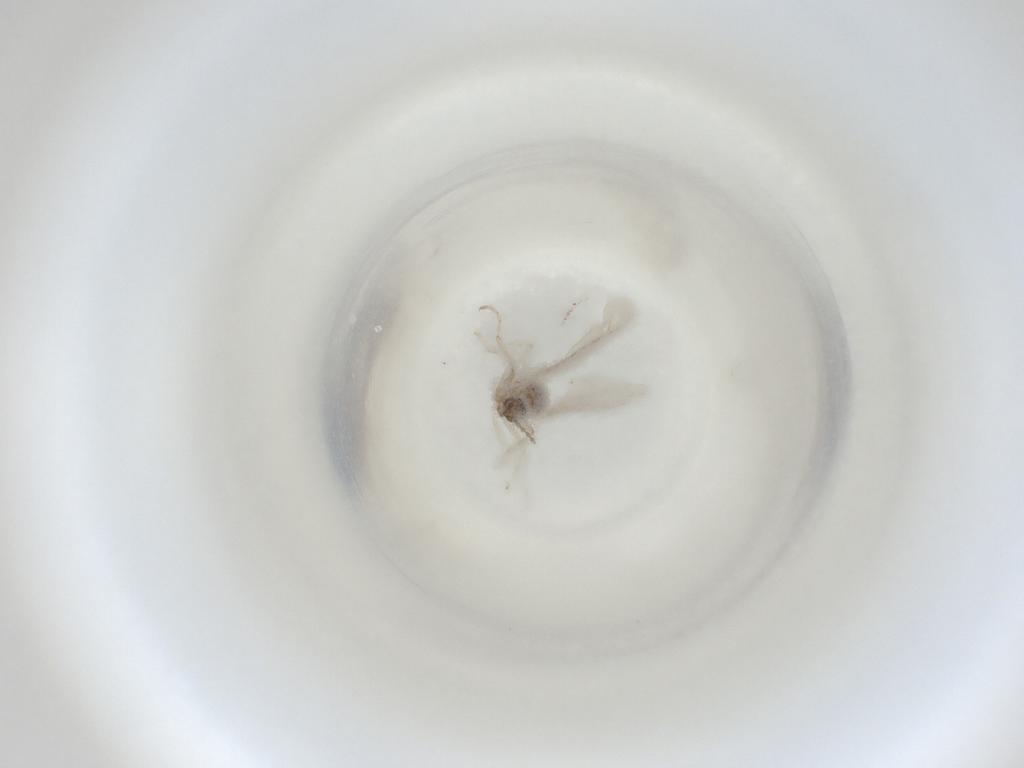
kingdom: Animalia
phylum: Arthropoda
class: Insecta
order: Diptera
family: Cecidomyiidae
